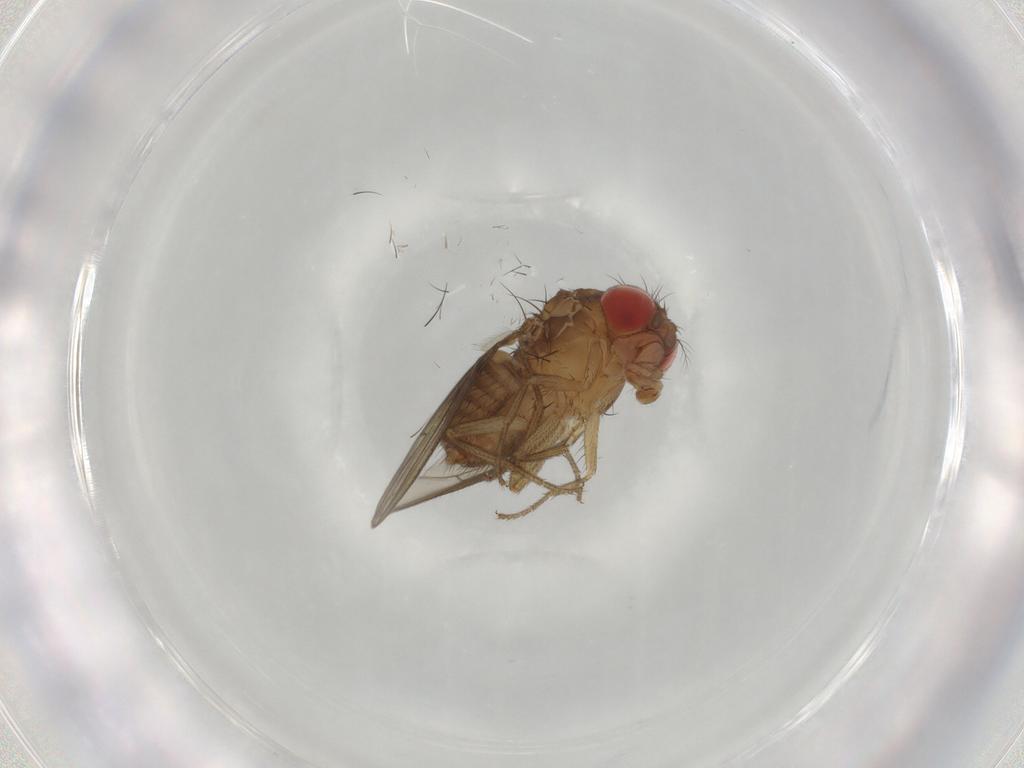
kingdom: Animalia
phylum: Arthropoda
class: Insecta
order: Diptera
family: Drosophilidae
